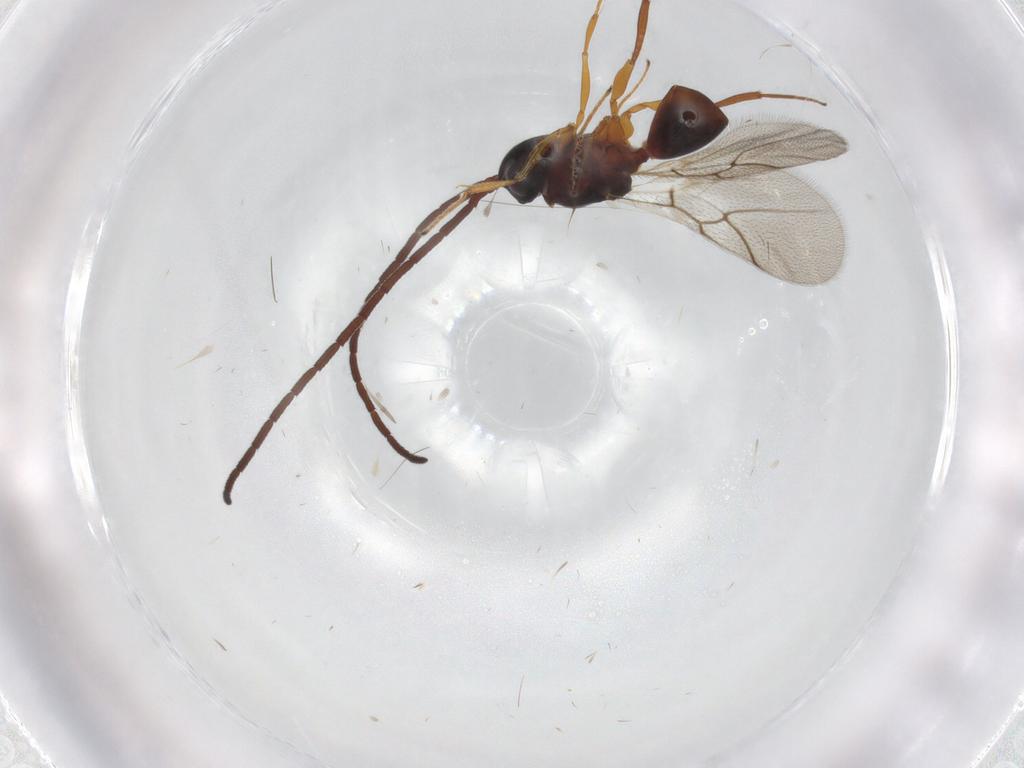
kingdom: Animalia
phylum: Arthropoda
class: Insecta
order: Hymenoptera
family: Figitidae
